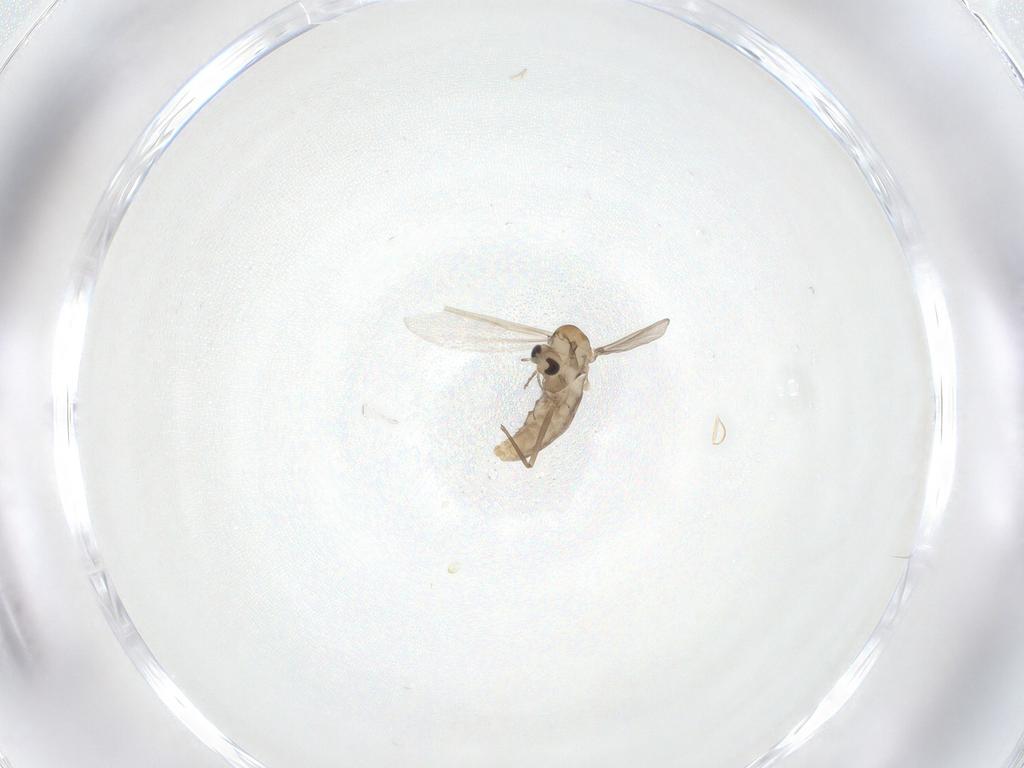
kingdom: Animalia
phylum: Arthropoda
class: Insecta
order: Diptera
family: Chironomidae
